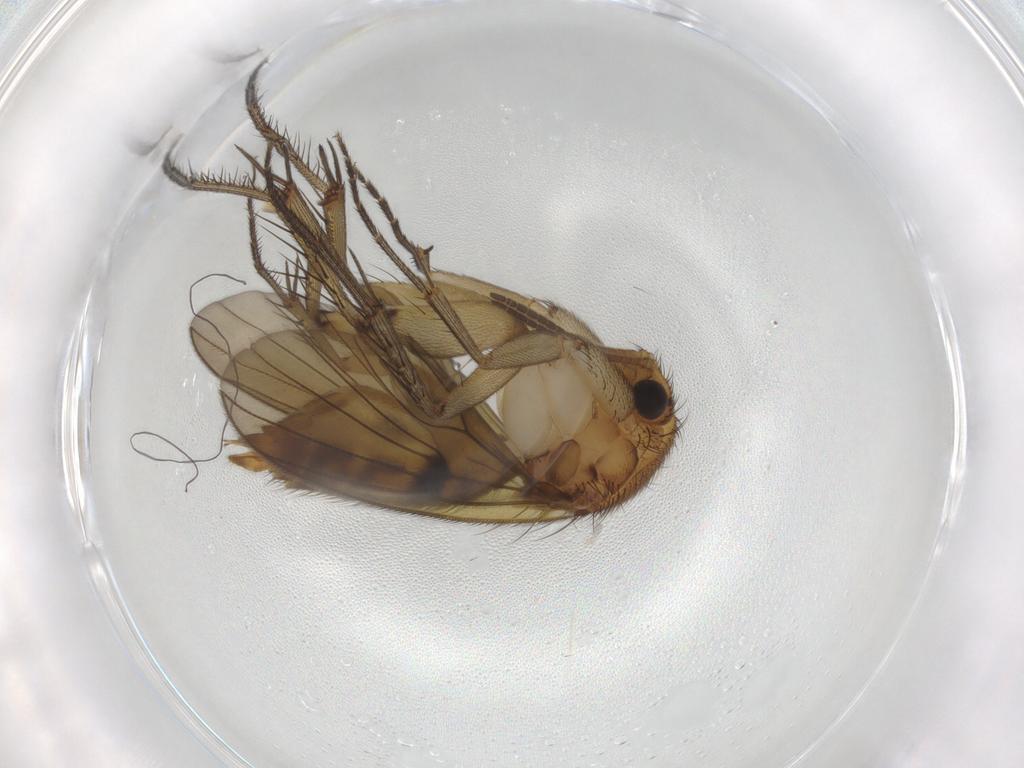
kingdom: Animalia
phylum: Arthropoda
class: Insecta
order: Diptera
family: Mycetophilidae
